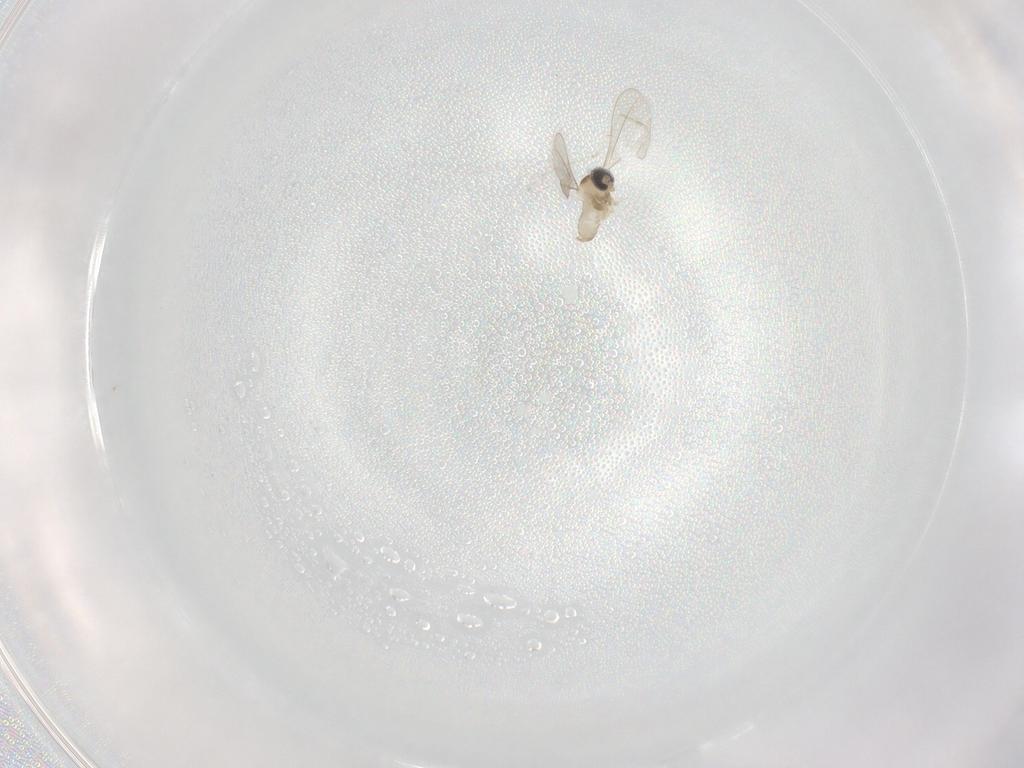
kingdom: Animalia
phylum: Arthropoda
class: Insecta
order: Diptera
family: Cecidomyiidae
